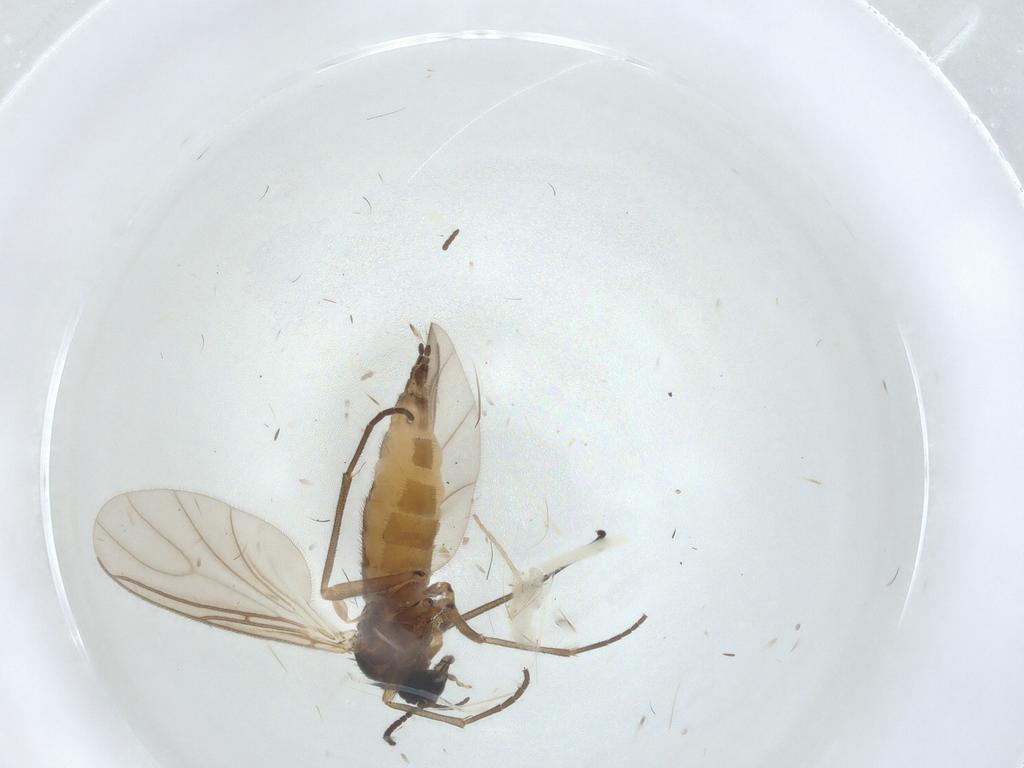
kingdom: Animalia
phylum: Arthropoda
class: Insecta
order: Diptera
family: Sciaridae
